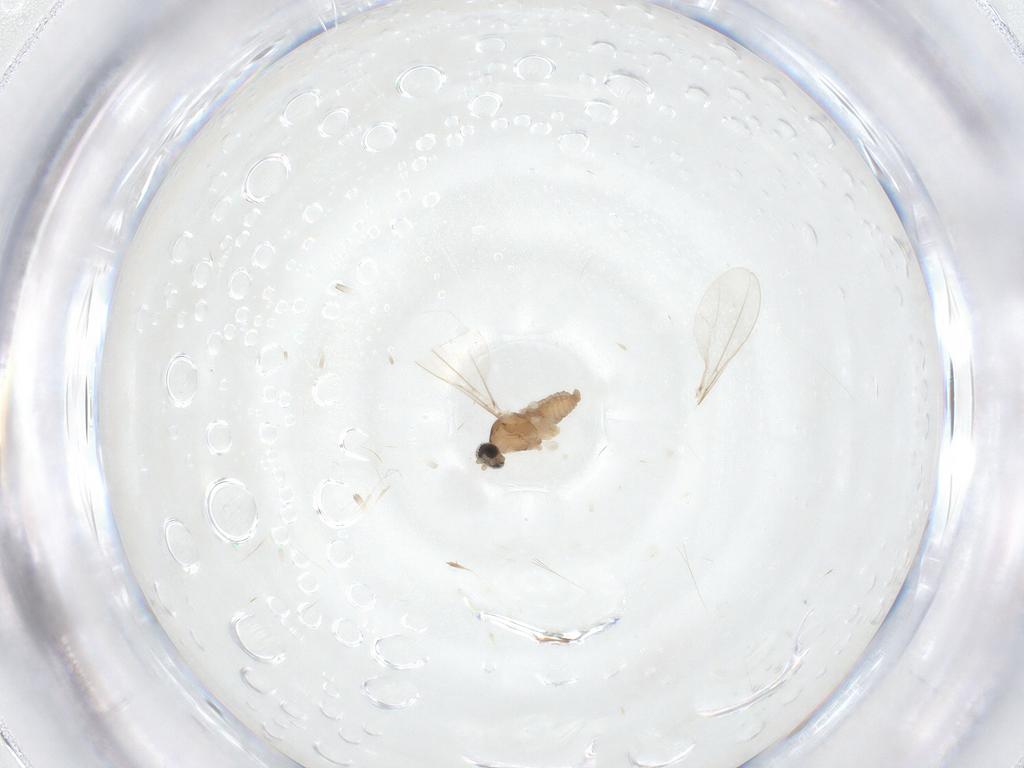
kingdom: Animalia
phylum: Arthropoda
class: Insecta
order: Diptera
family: Cecidomyiidae
